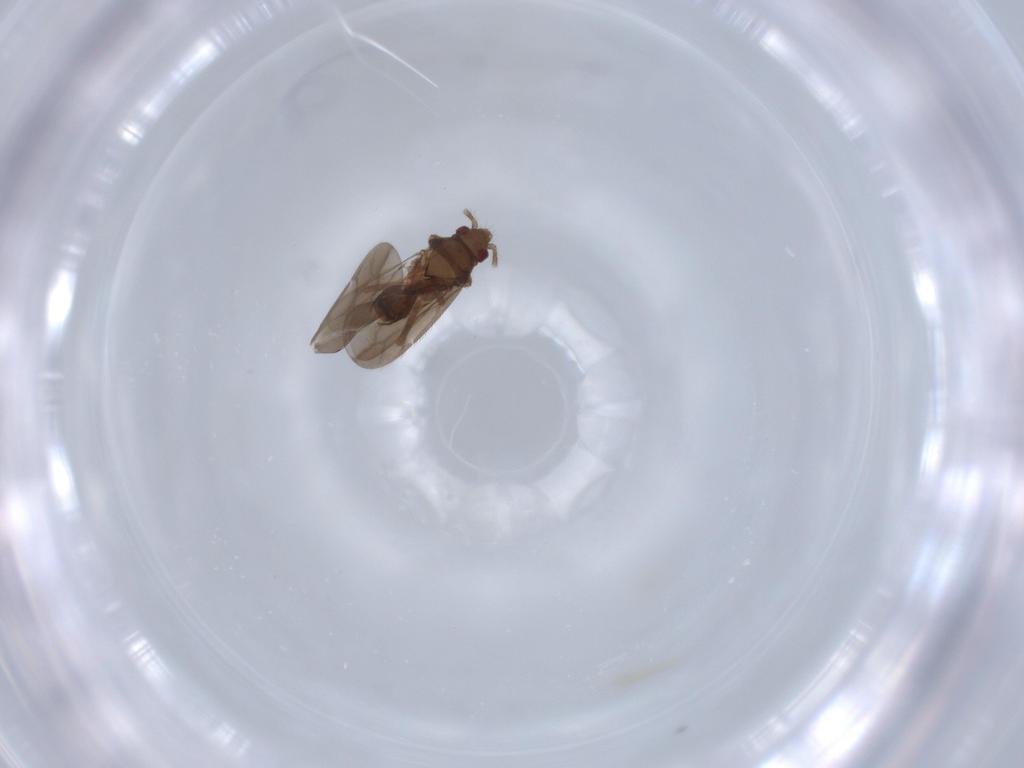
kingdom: Animalia
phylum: Arthropoda
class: Insecta
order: Hemiptera
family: Ceratocombidae
